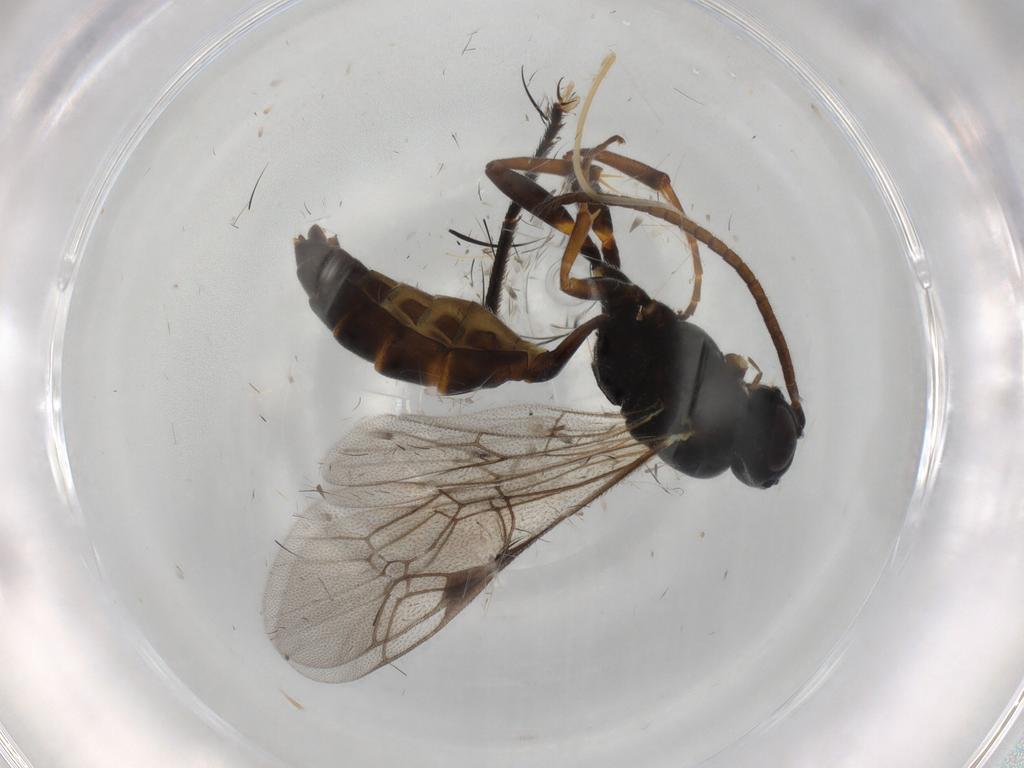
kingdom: Animalia
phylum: Arthropoda
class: Insecta
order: Hymenoptera
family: Ichneumonidae
